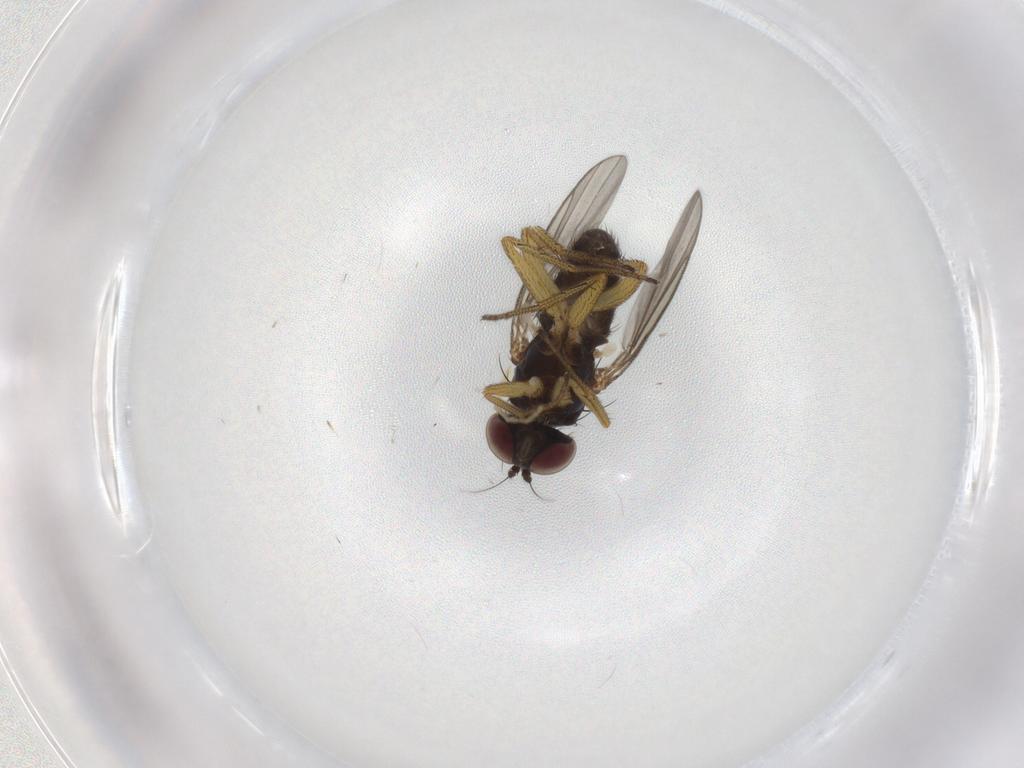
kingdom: Animalia
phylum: Arthropoda
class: Insecta
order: Diptera
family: Dolichopodidae
